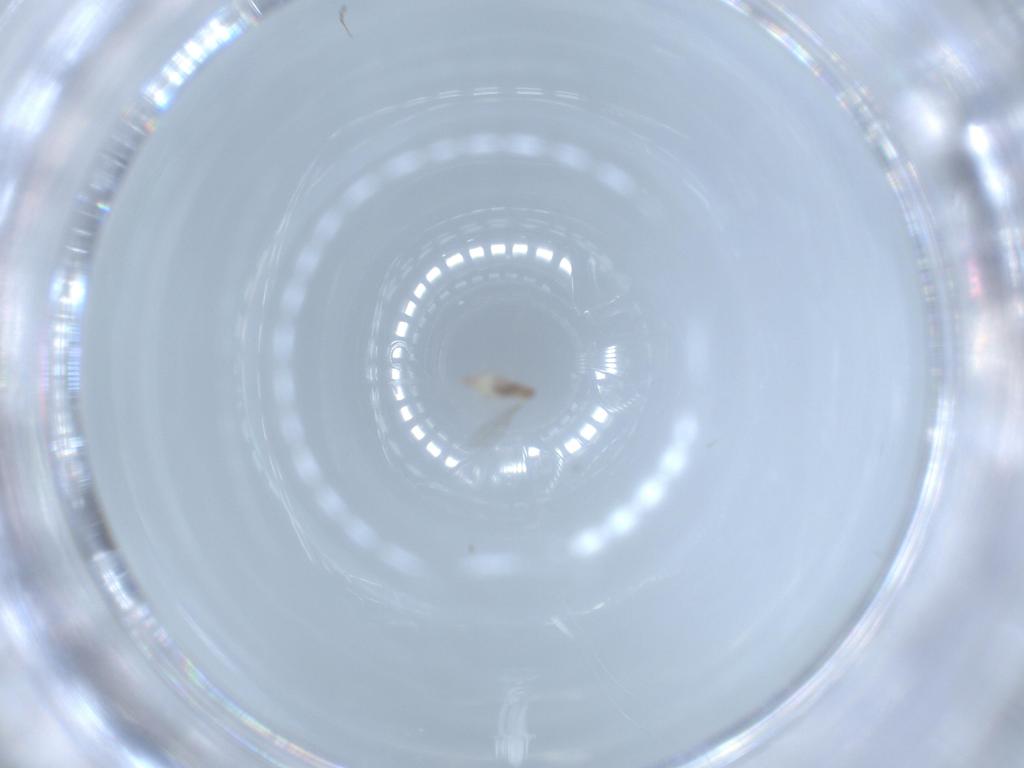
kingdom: Animalia
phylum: Arthropoda
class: Insecta
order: Diptera
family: Cecidomyiidae
